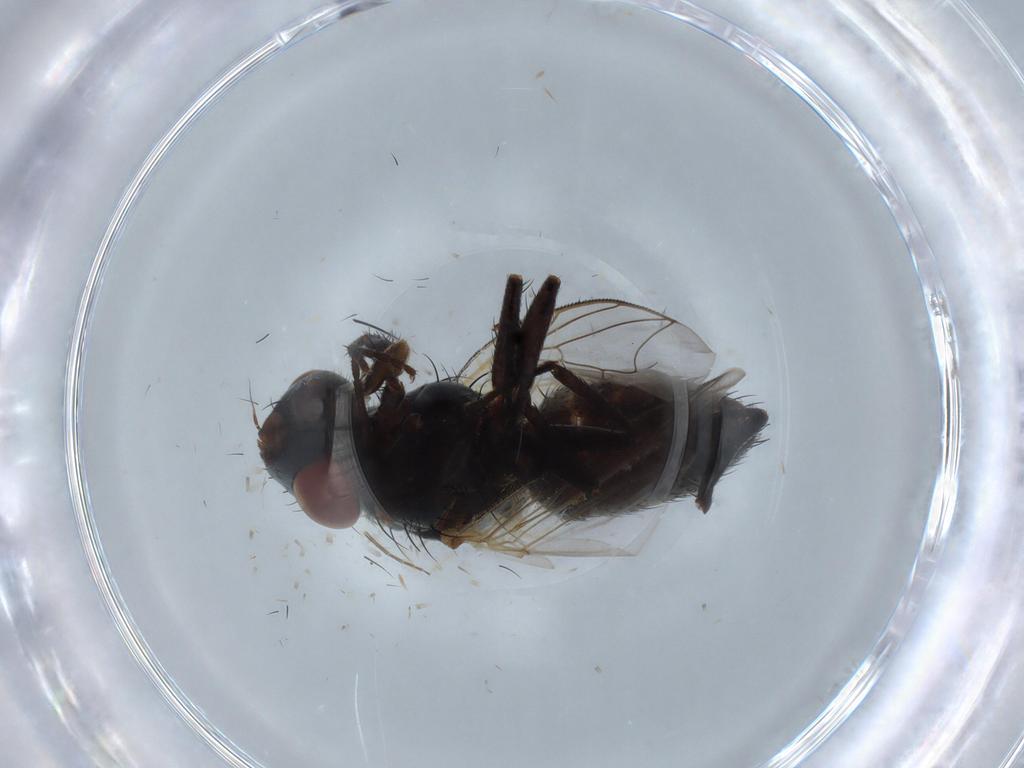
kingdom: Animalia
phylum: Arthropoda
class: Insecta
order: Diptera
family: Sarcophagidae
